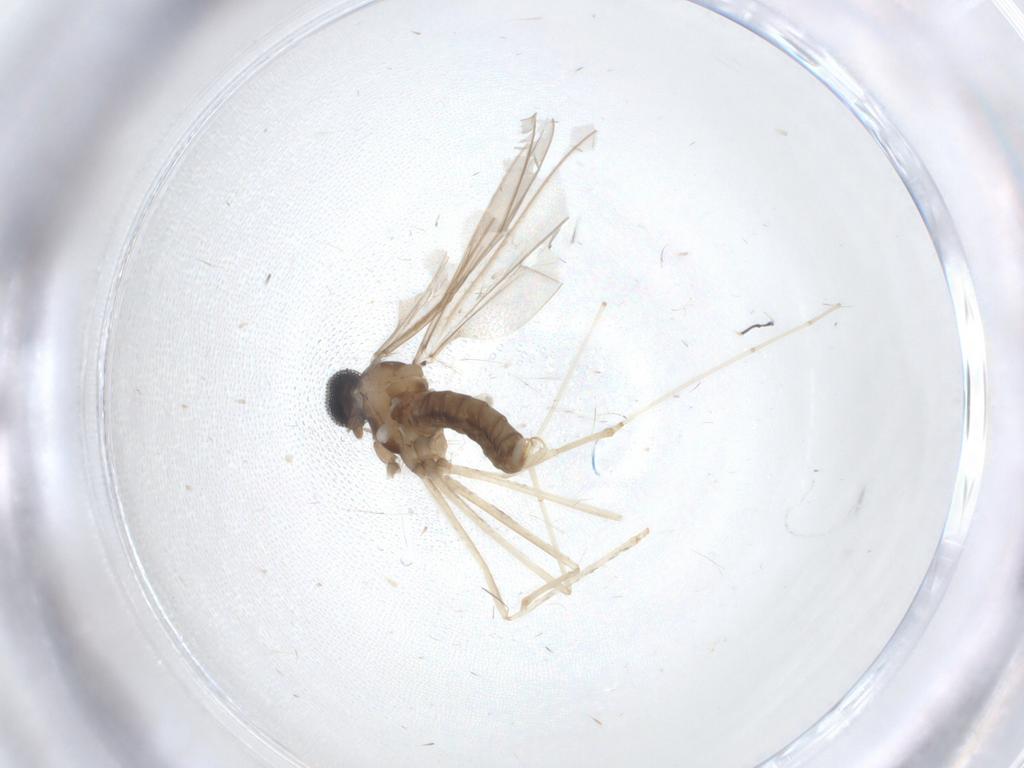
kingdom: Animalia
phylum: Arthropoda
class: Insecta
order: Diptera
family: Cecidomyiidae
